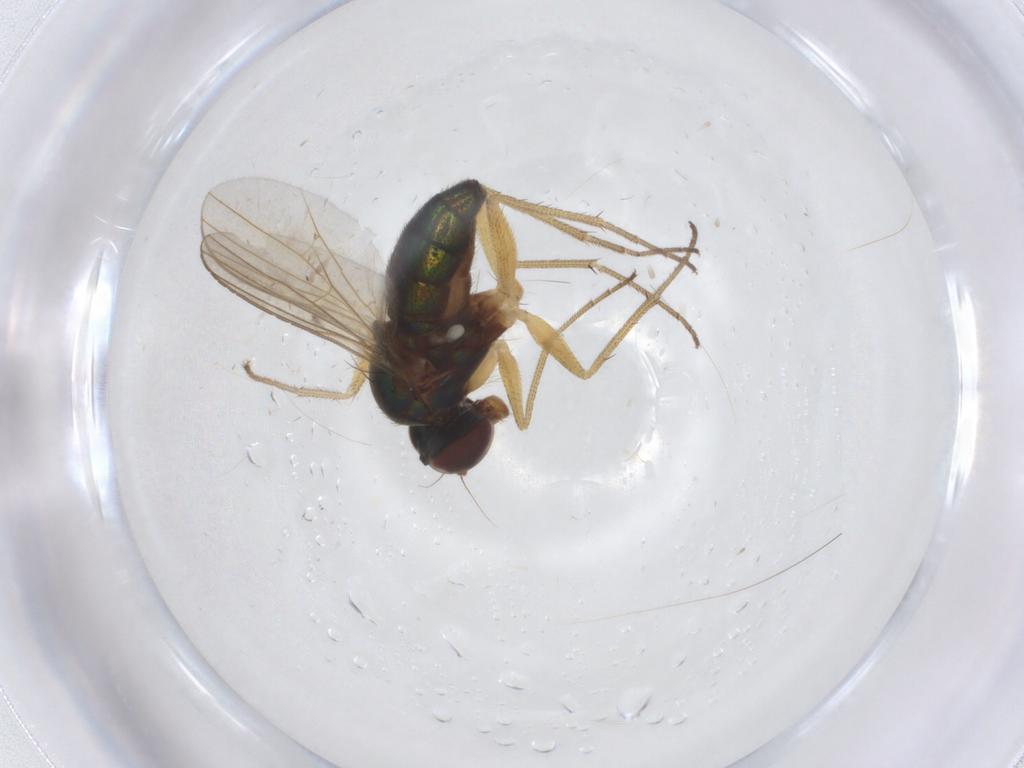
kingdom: Animalia
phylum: Arthropoda
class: Insecta
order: Diptera
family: Dolichopodidae
